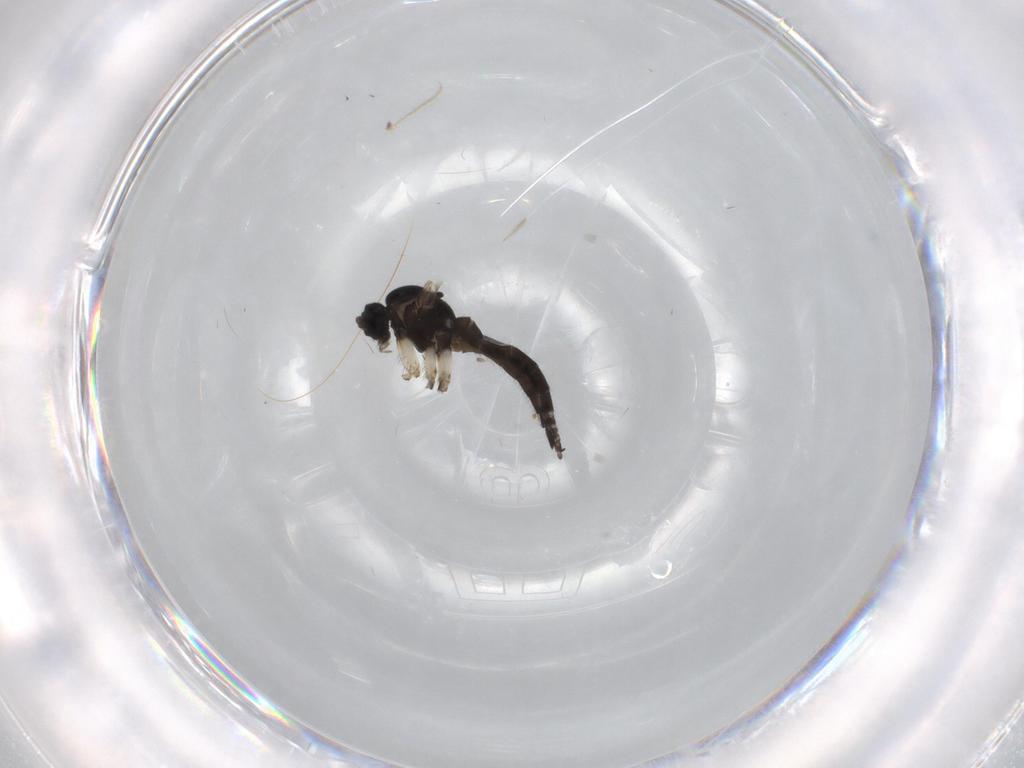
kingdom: Animalia
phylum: Arthropoda
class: Insecta
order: Diptera
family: Sciaridae
